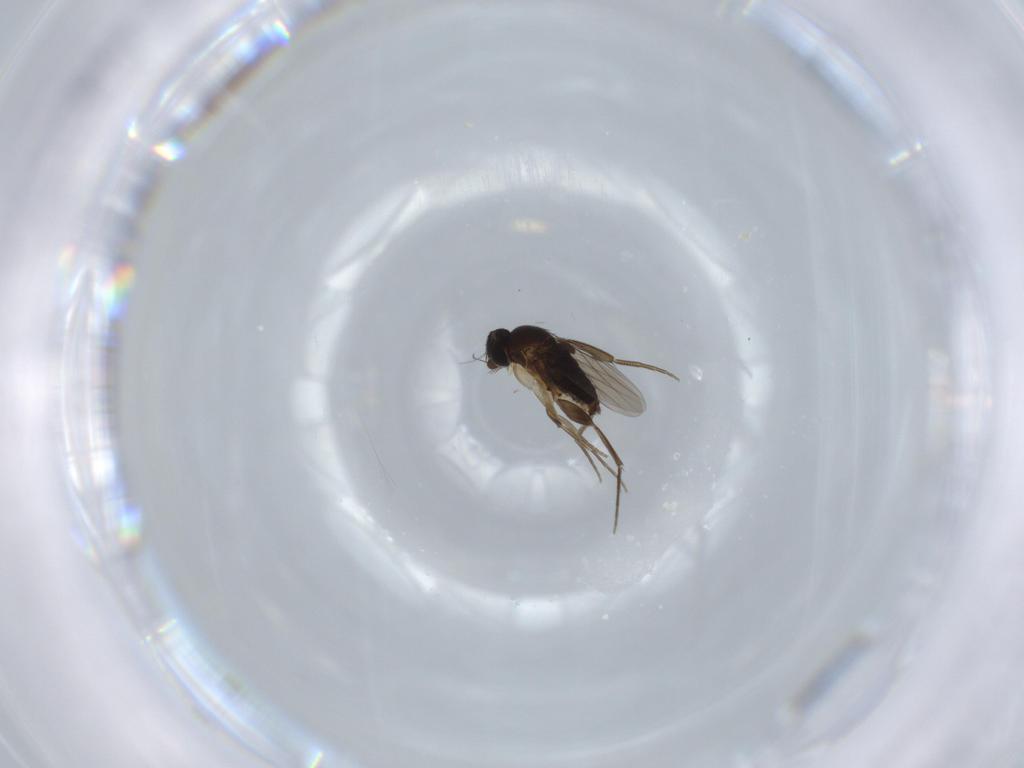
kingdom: Animalia
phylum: Arthropoda
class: Insecta
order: Diptera
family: Phoridae
